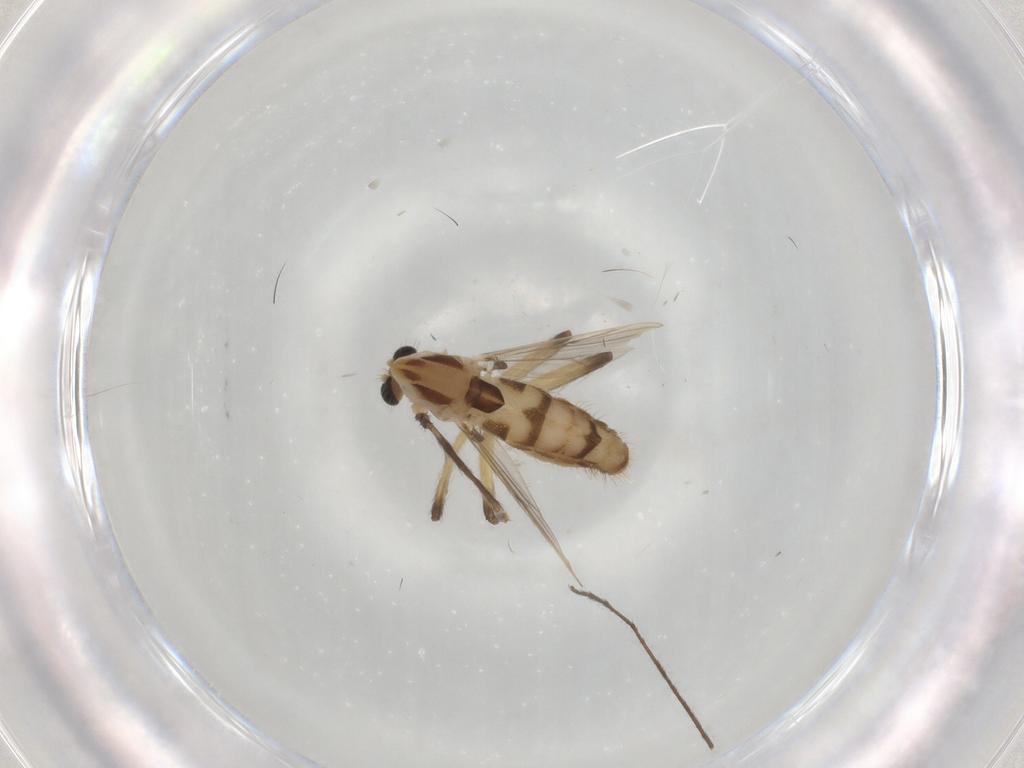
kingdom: Animalia
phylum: Arthropoda
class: Insecta
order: Diptera
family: Chironomidae
